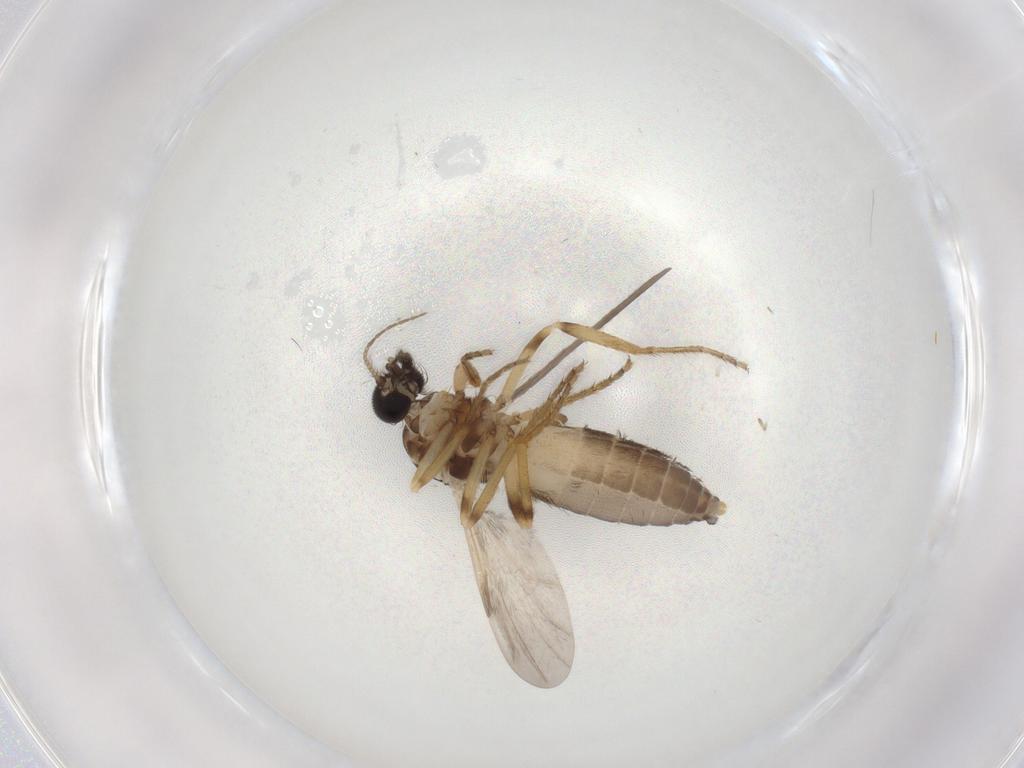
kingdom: Animalia
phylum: Arthropoda
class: Insecta
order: Diptera
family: Ceratopogonidae
